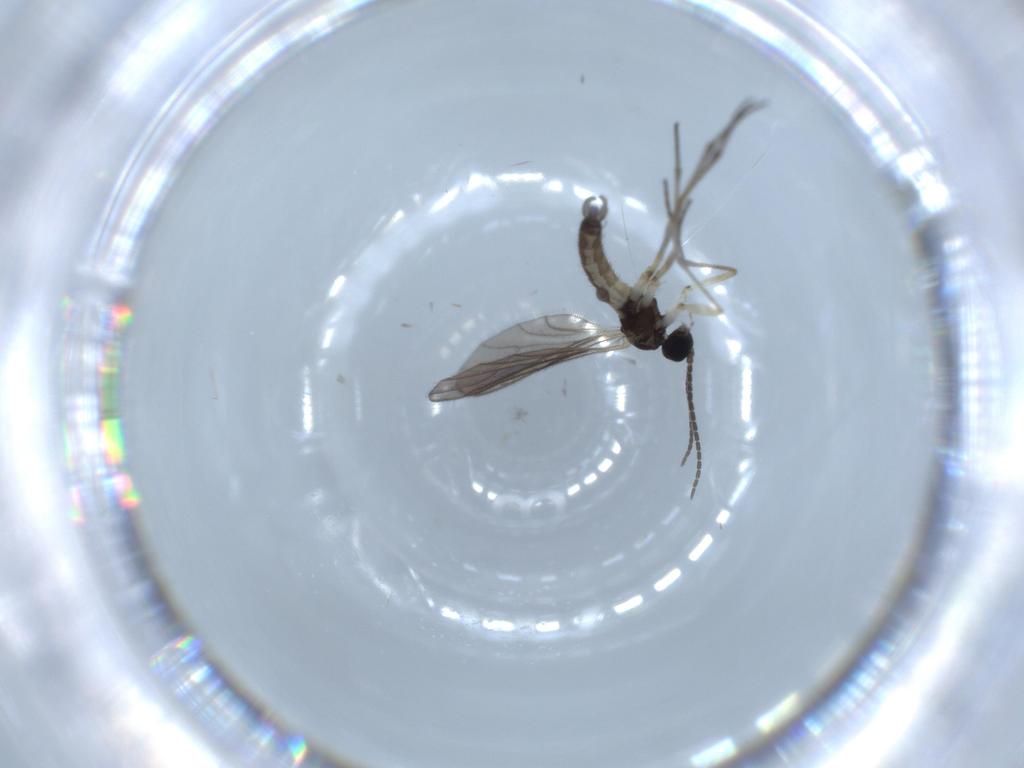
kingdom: Animalia
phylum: Arthropoda
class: Insecta
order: Diptera
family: Sciaridae
